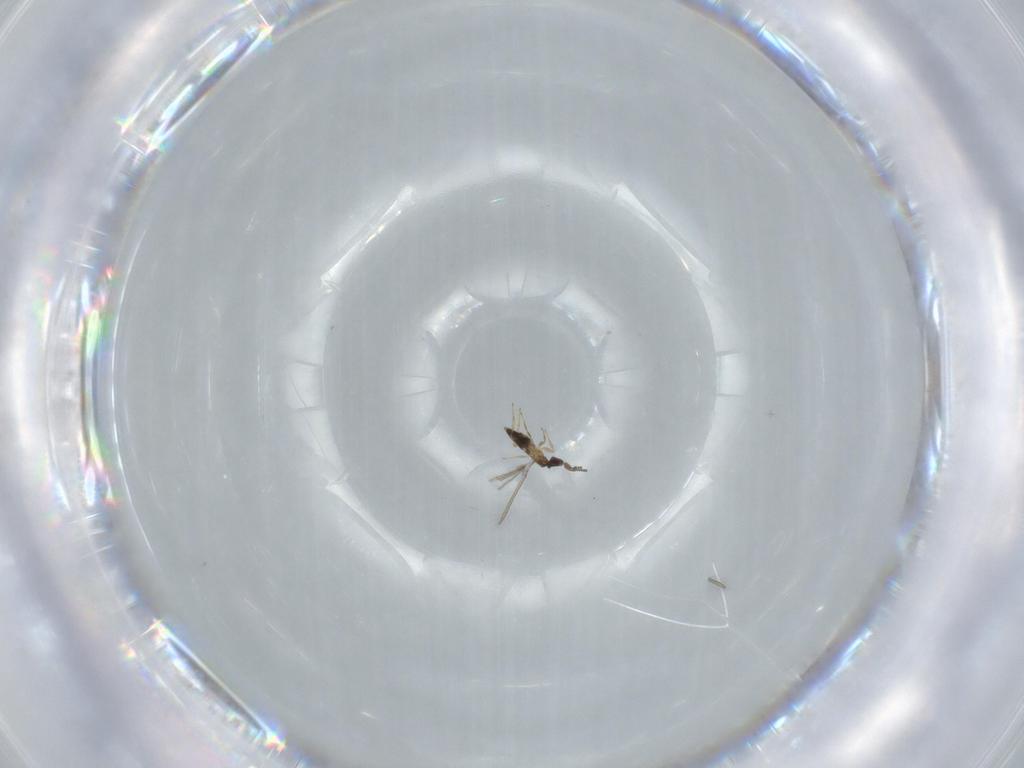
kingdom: Animalia
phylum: Arthropoda
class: Insecta
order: Hymenoptera
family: Mymaridae
